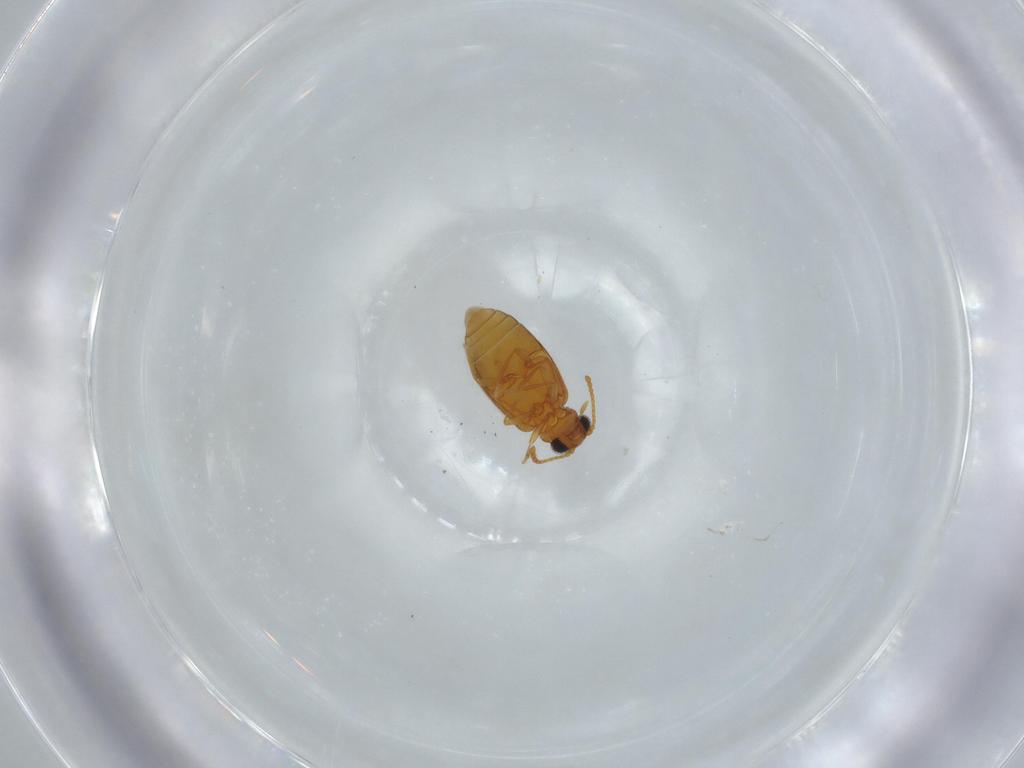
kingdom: Animalia
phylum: Arthropoda
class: Insecta
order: Coleoptera
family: Aderidae
